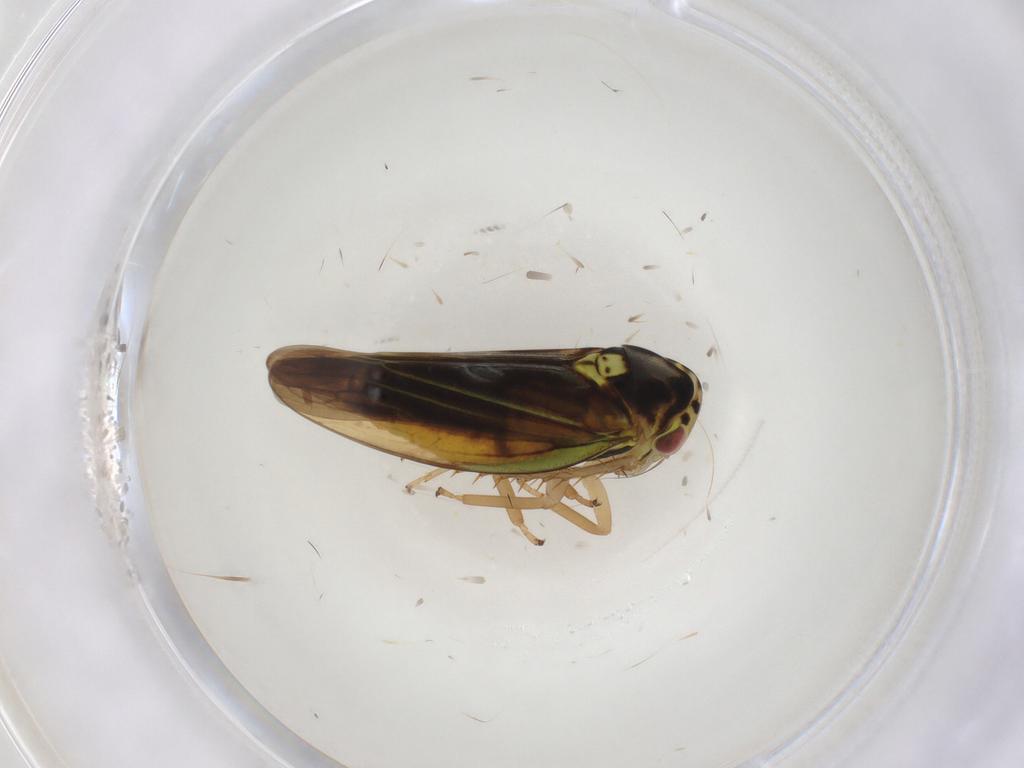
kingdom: Animalia
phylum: Arthropoda
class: Insecta
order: Hemiptera
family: Cicadellidae
